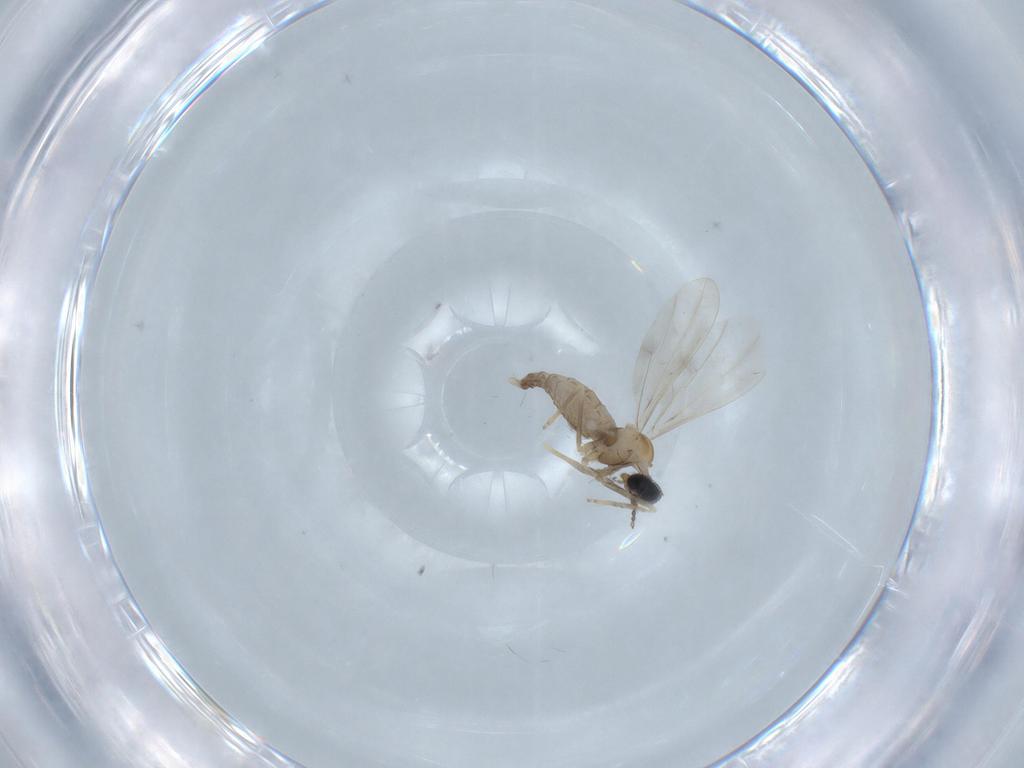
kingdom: Animalia
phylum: Arthropoda
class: Insecta
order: Diptera
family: Cecidomyiidae
